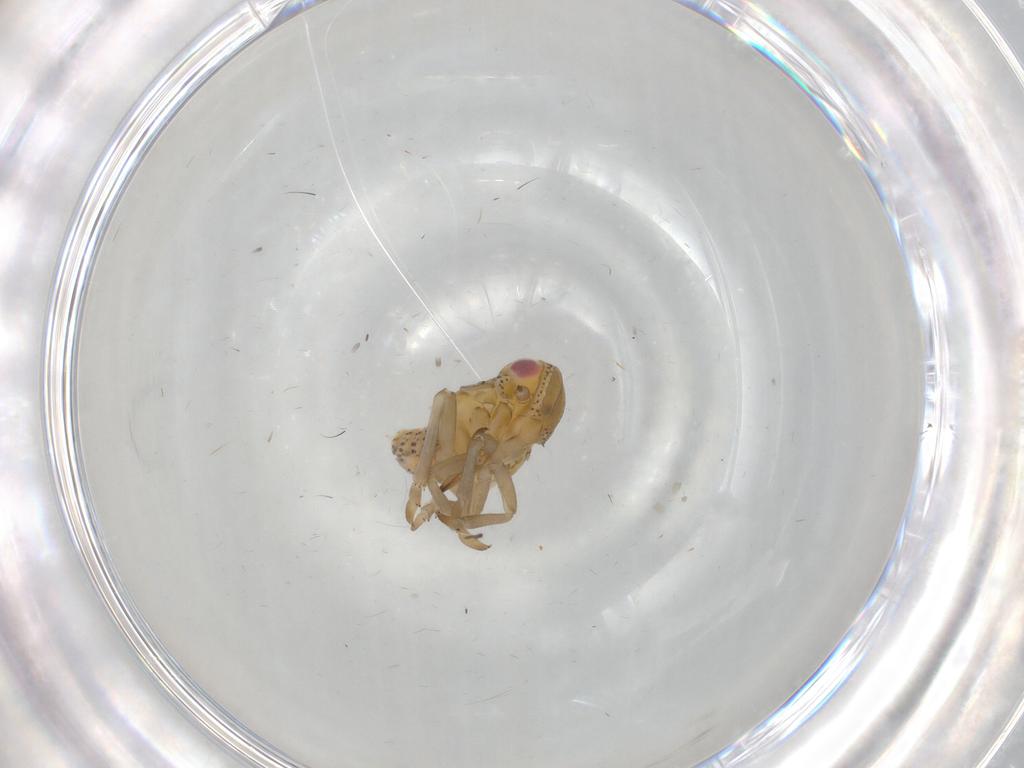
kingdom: Animalia
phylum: Arthropoda
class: Insecta
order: Hemiptera
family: Tropiduchidae
